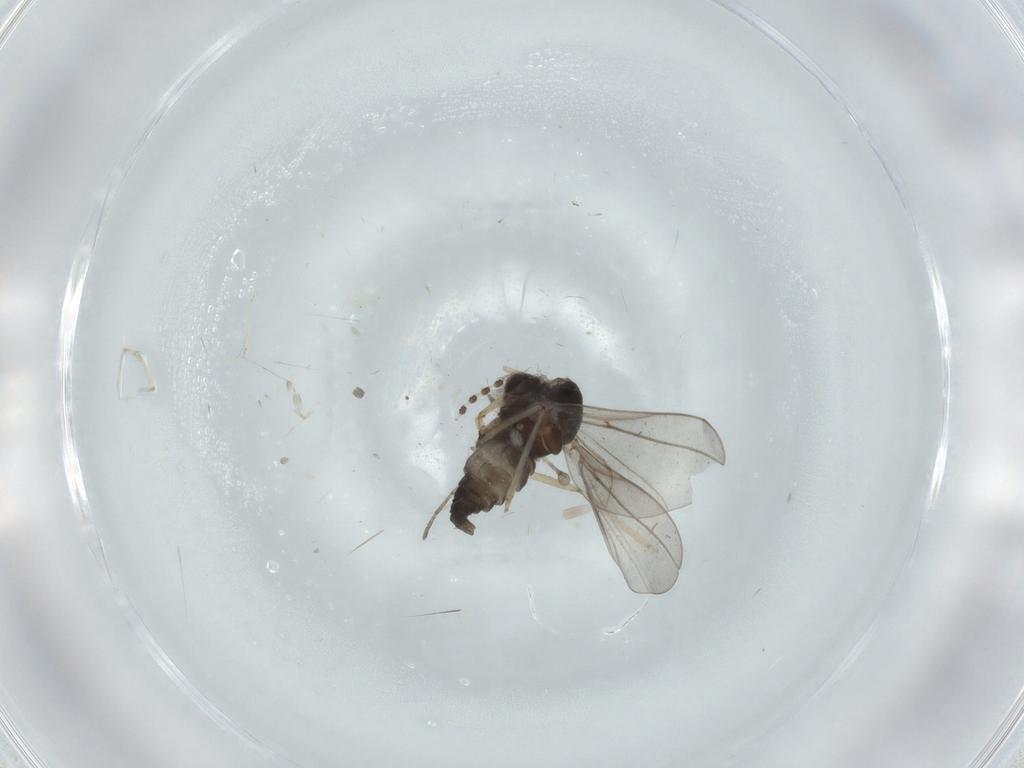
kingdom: Animalia
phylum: Arthropoda
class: Insecta
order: Diptera
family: Cecidomyiidae
